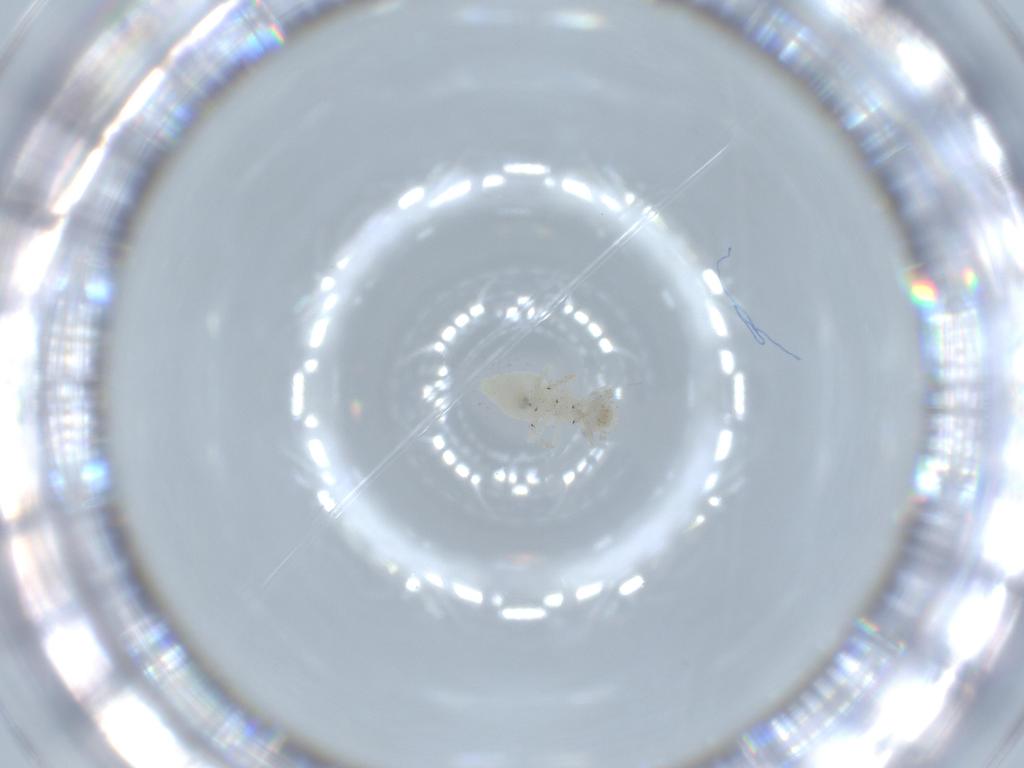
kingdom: Animalia
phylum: Arthropoda
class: Insecta
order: Psocodea
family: Caeciliusidae
